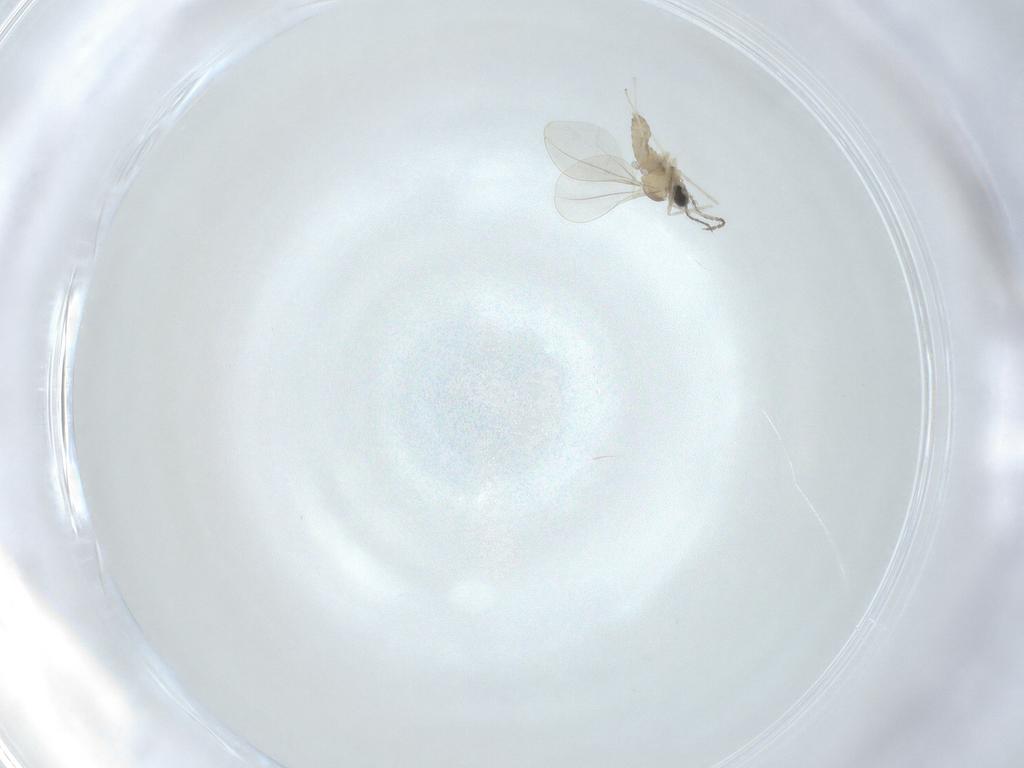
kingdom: Animalia
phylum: Arthropoda
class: Insecta
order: Diptera
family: Cecidomyiidae
